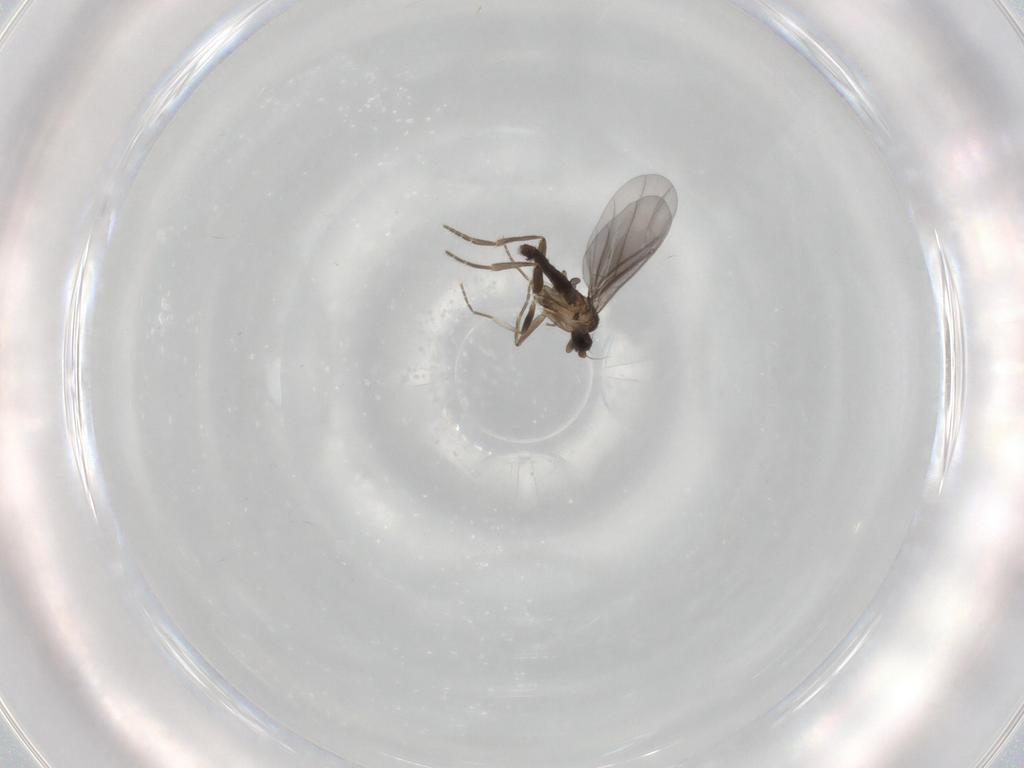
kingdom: Animalia
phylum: Arthropoda
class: Insecta
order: Diptera
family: Phoridae
